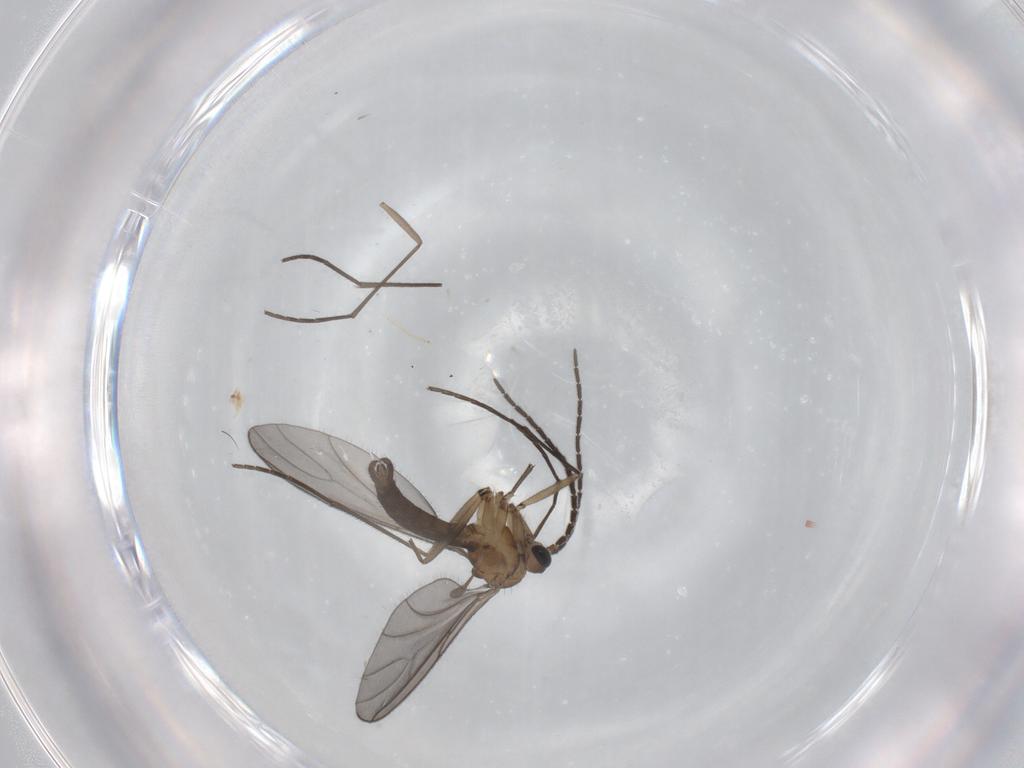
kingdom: Animalia
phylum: Arthropoda
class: Insecta
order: Diptera
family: Sciaridae
